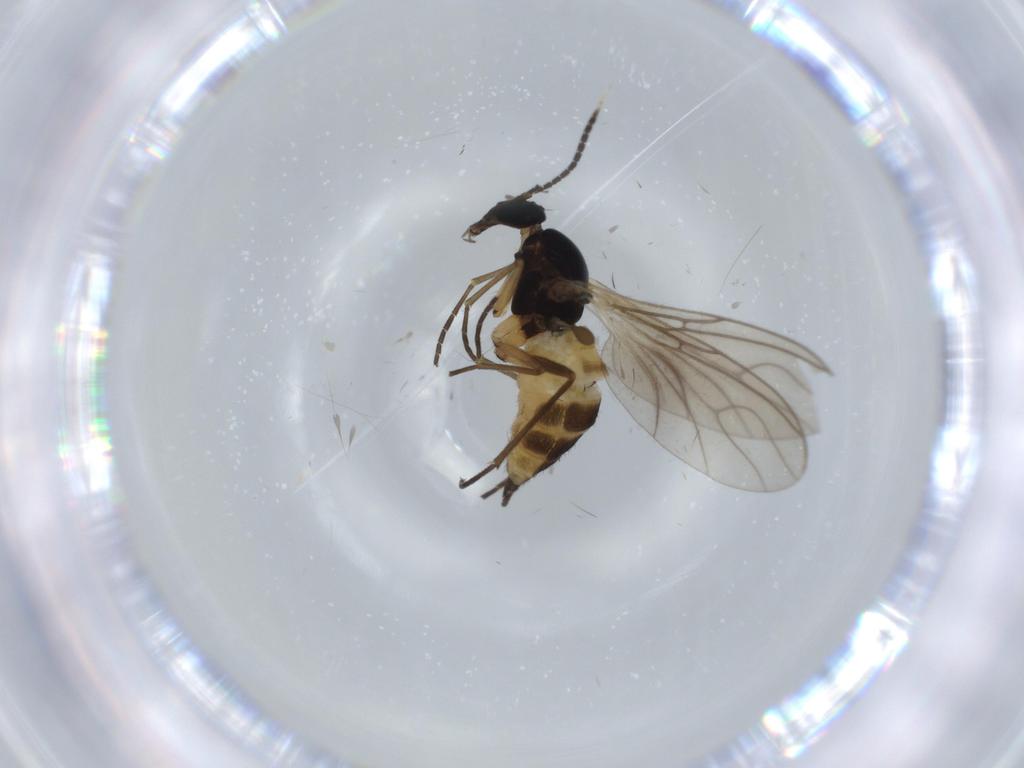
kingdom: Animalia
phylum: Arthropoda
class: Insecta
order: Diptera
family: Sciaridae
